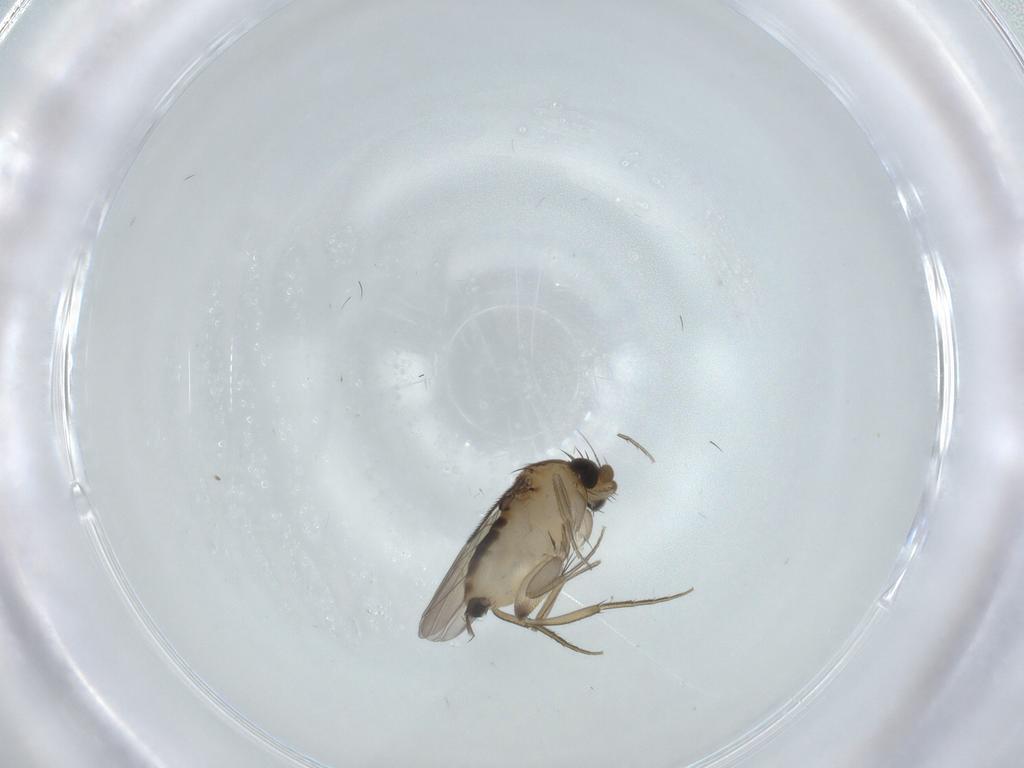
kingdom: Animalia
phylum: Arthropoda
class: Insecta
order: Diptera
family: Phoridae
